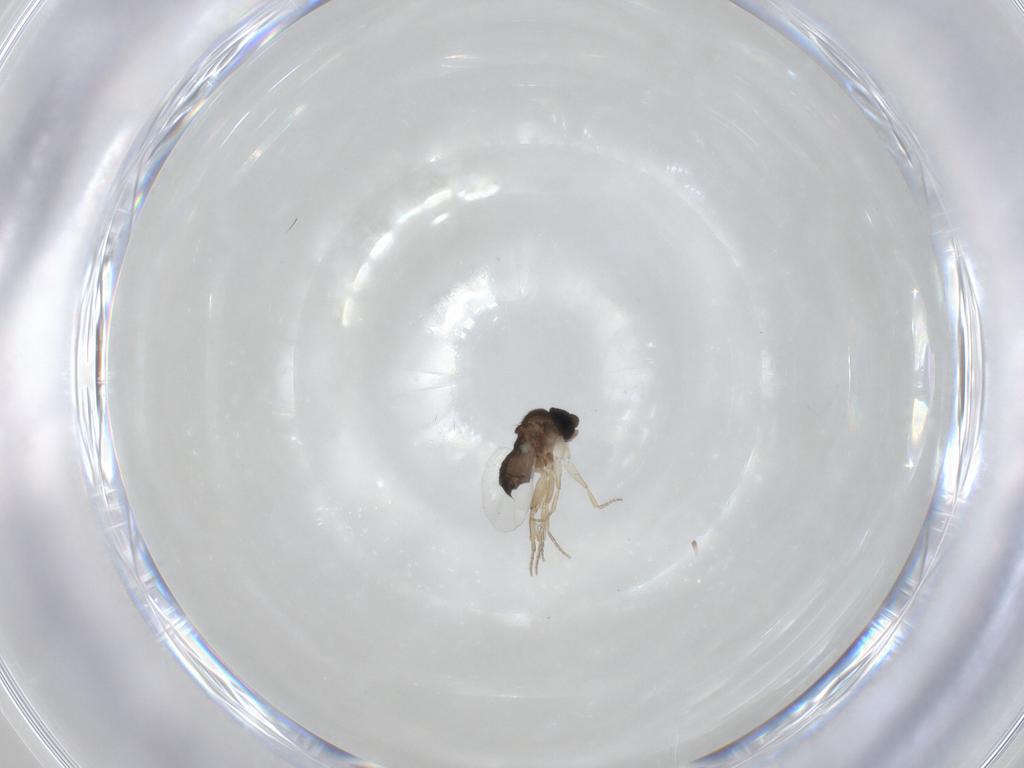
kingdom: Animalia
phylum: Arthropoda
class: Insecta
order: Diptera
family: Phoridae
